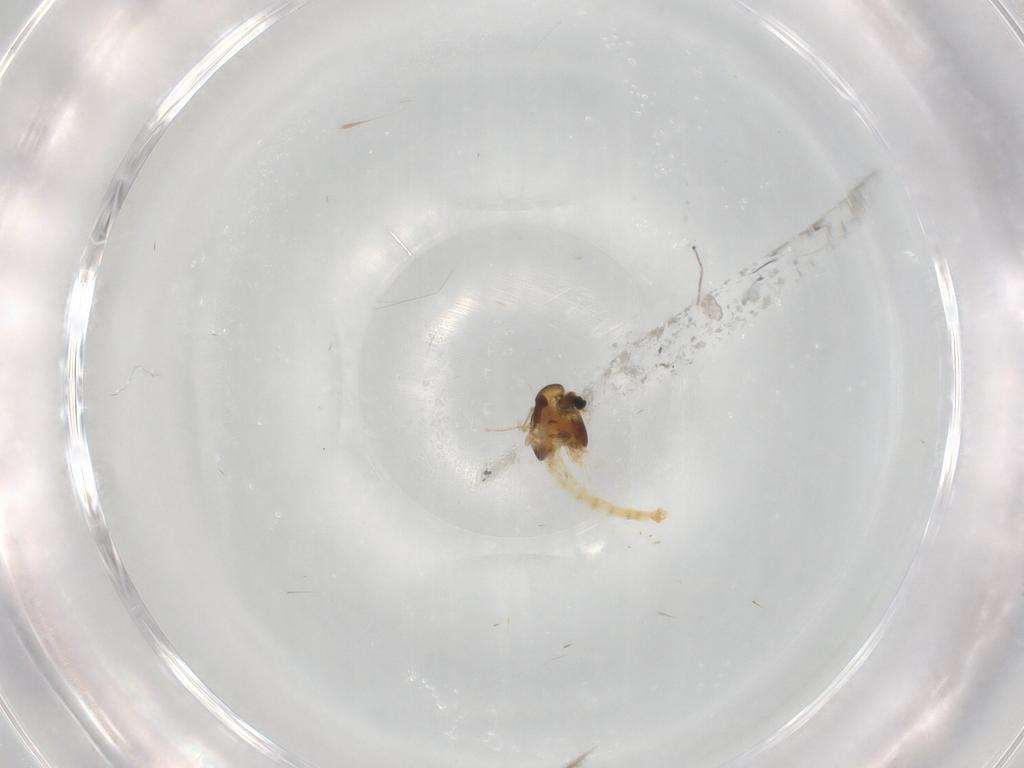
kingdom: Animalia
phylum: Arthropoda
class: Insecta
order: Diptera
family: Chironomidae
